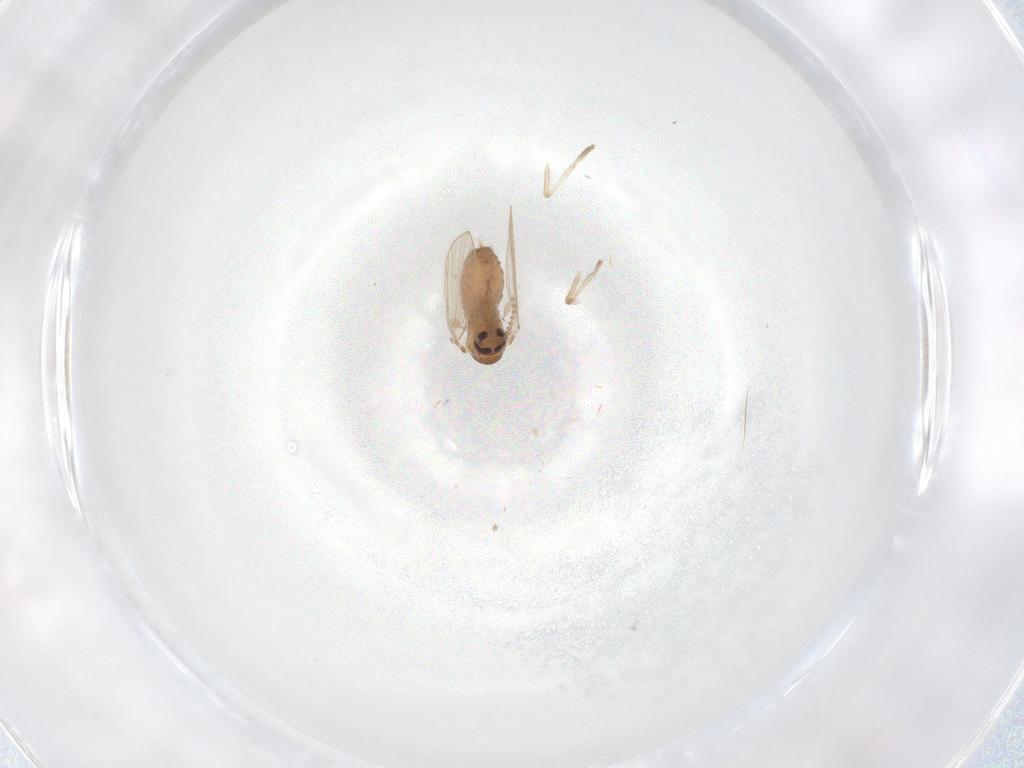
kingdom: Animalia
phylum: Arthropoda
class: Insecta
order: Diptera
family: Psychodidae
